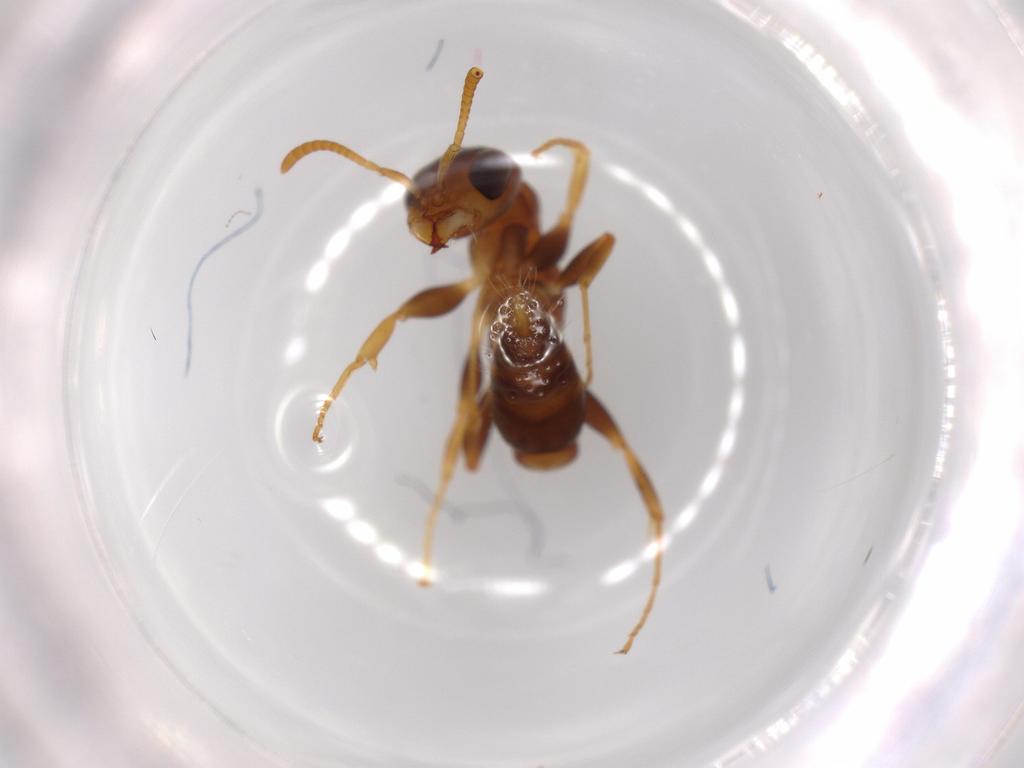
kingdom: Animalia
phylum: Arthropoda
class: Insecta
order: Hymenoptera
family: Formicidae
